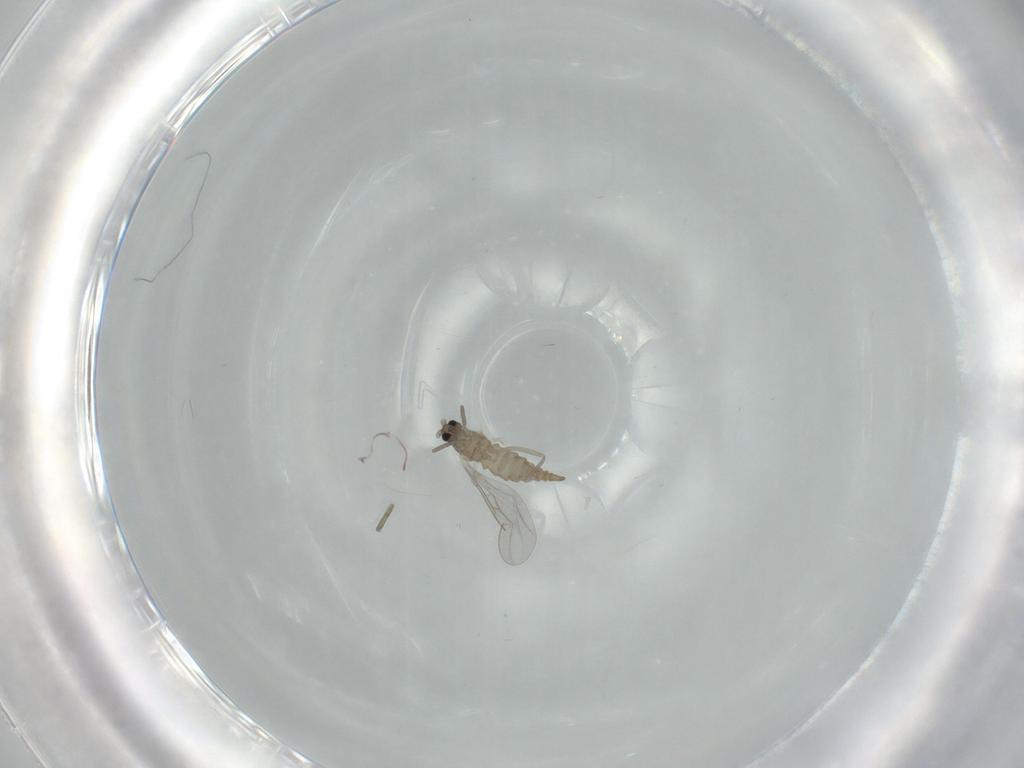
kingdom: Animalia
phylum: Arthropoda
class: Insecta
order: Diptera
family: Cecidomyiidae
